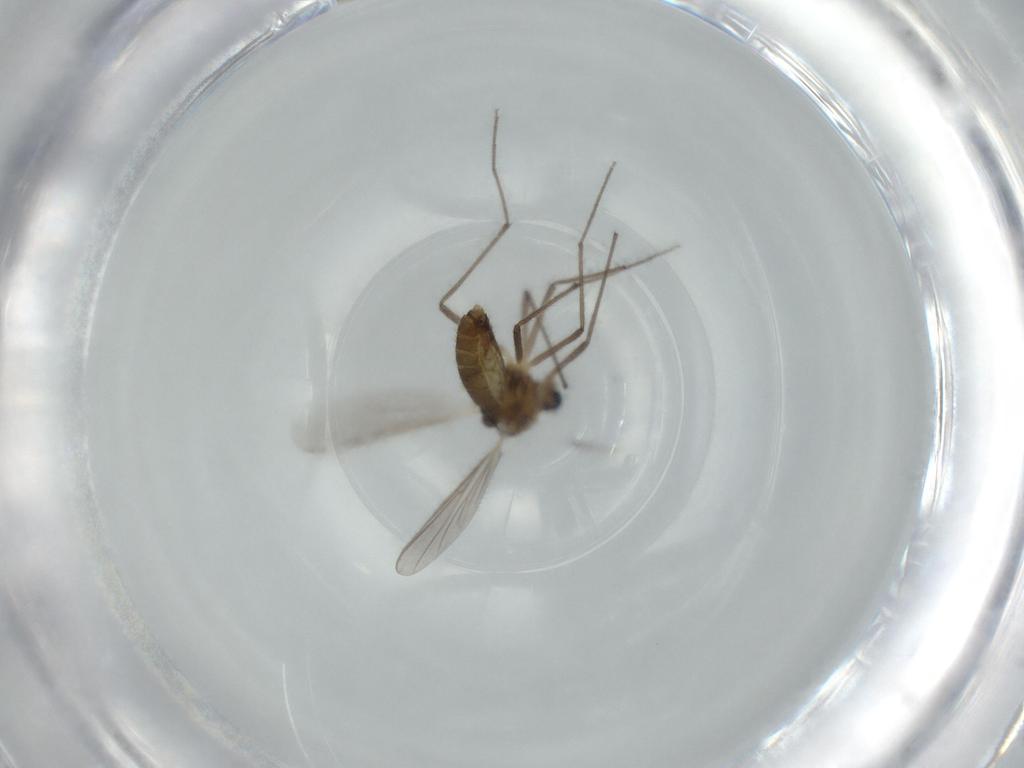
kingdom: Animalia
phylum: Arthropoda
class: Insecta
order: Diptera
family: Chironomidae
